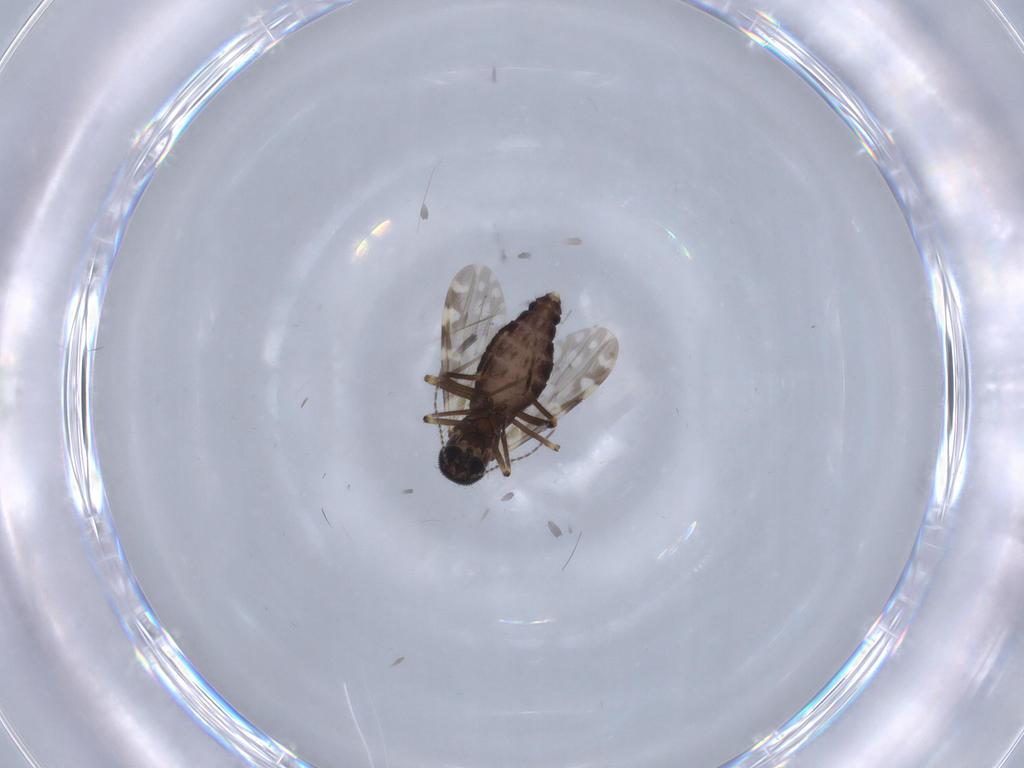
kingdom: Animalia
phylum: Arthropoda
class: Insecta
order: Diptera
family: Ceratopogonidae
